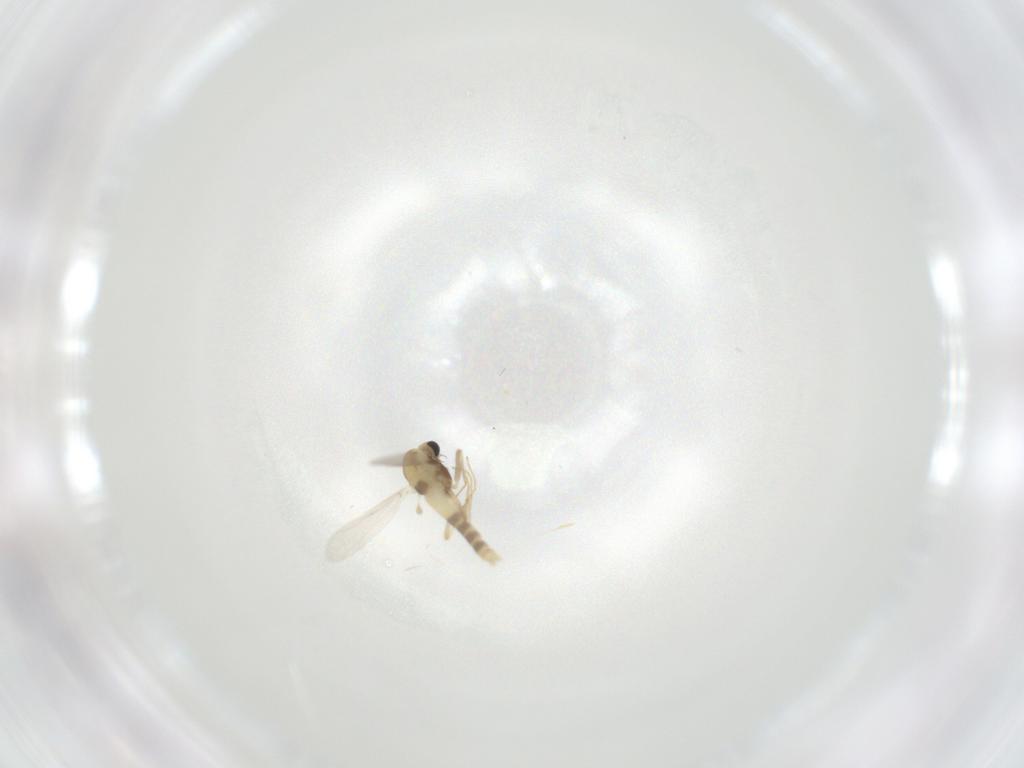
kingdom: Animalia
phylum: Arthropoda
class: Insecta
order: Diptera
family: Chironomidae
